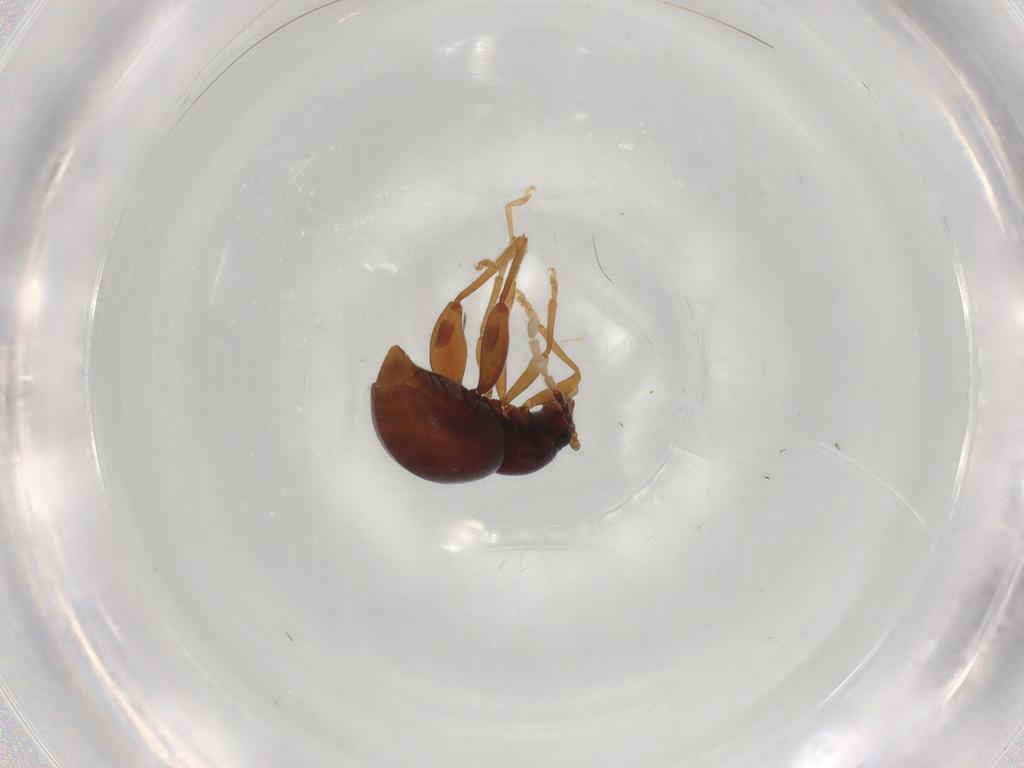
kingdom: Animalia
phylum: Arthropoda
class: Insecta
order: Coleoptera
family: Chrysomelidae
